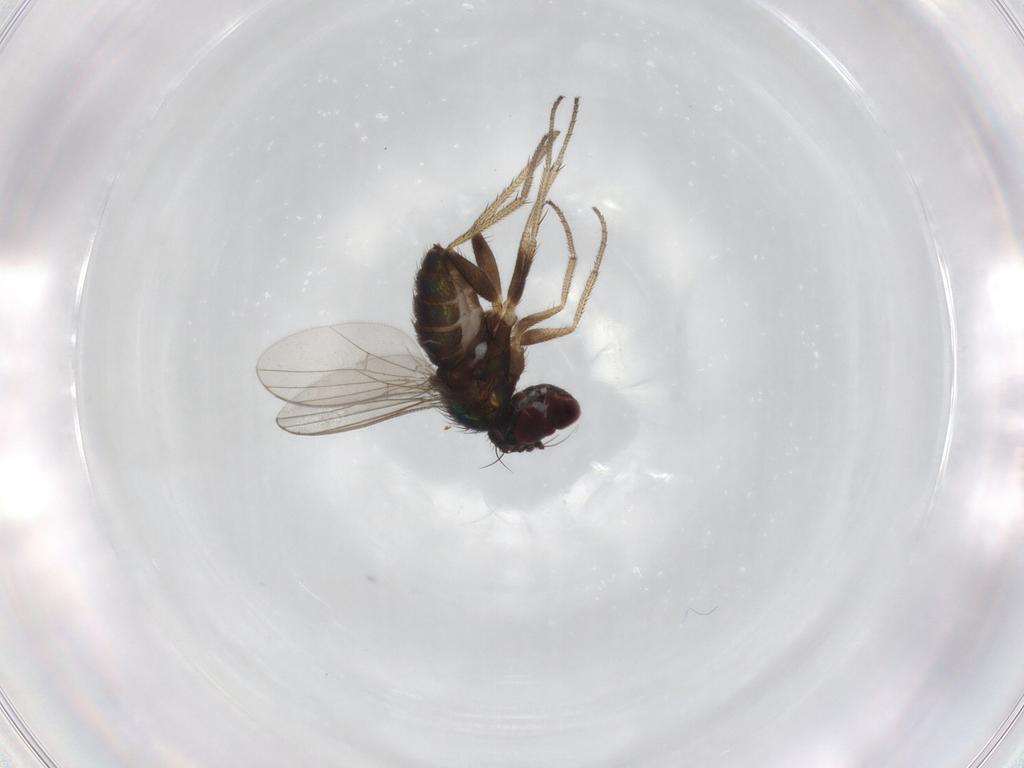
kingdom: Animalia
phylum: Arthropoda
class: Insecta
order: Diptera
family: Dolichopodidae
